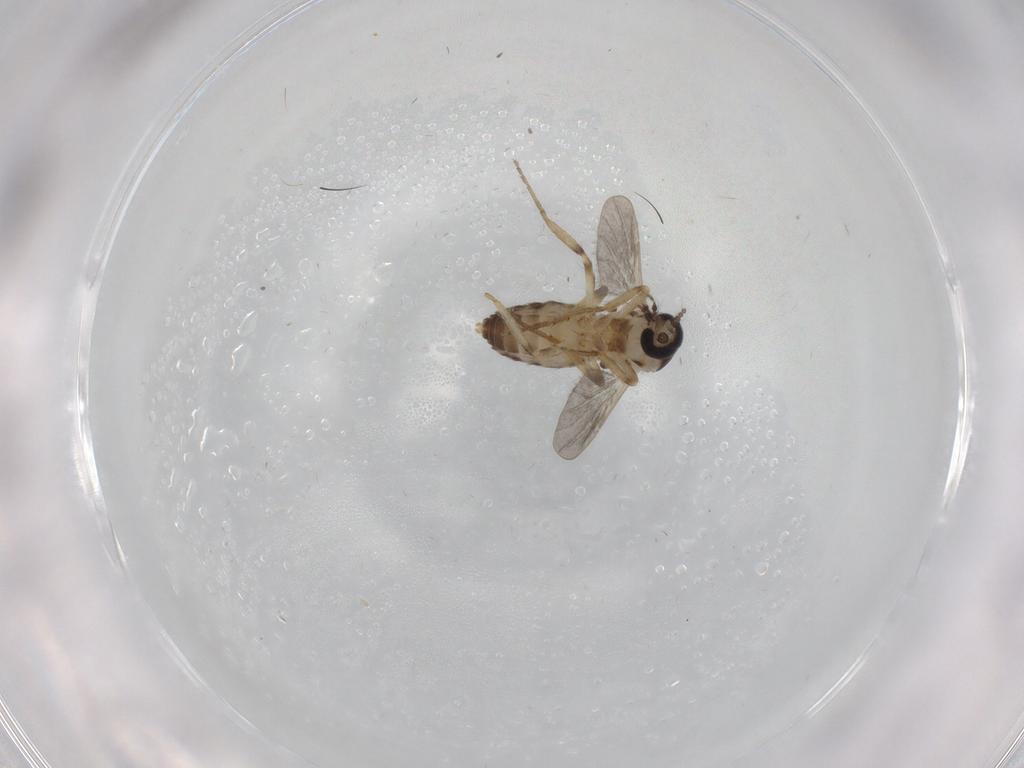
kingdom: Animalia
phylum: Arthropoda
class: Insecta
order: Diptera
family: Ceratopogonidae
